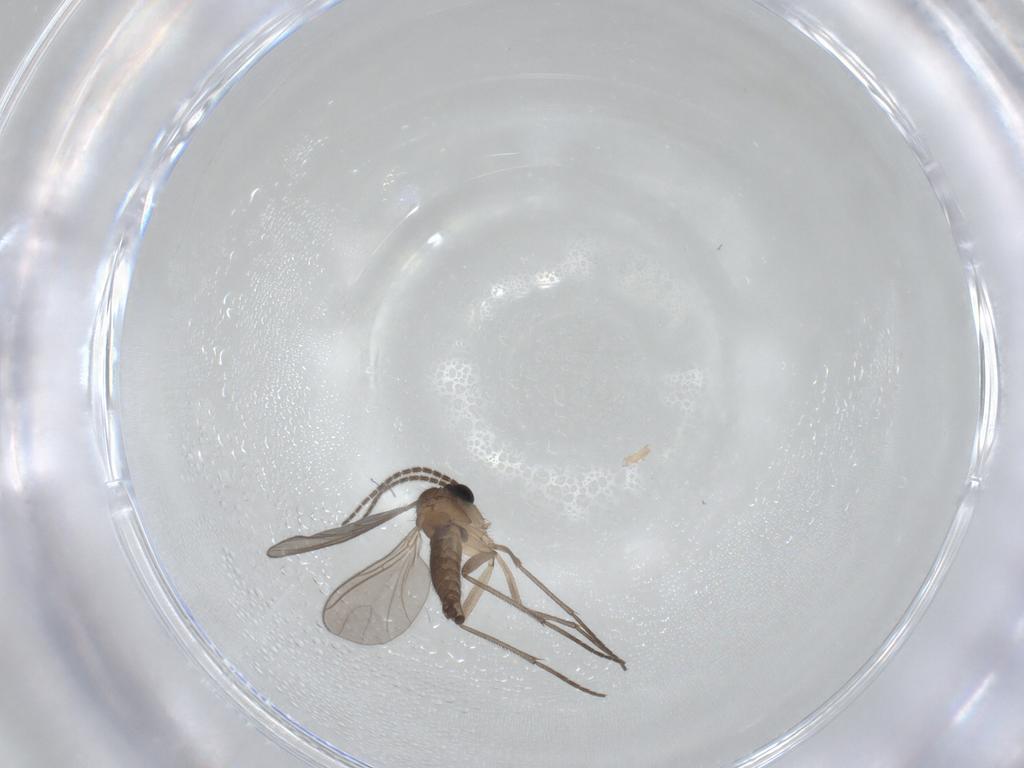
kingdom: Animalia
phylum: Arthropoda
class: Insecta
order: Diptera
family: Sciaridae
